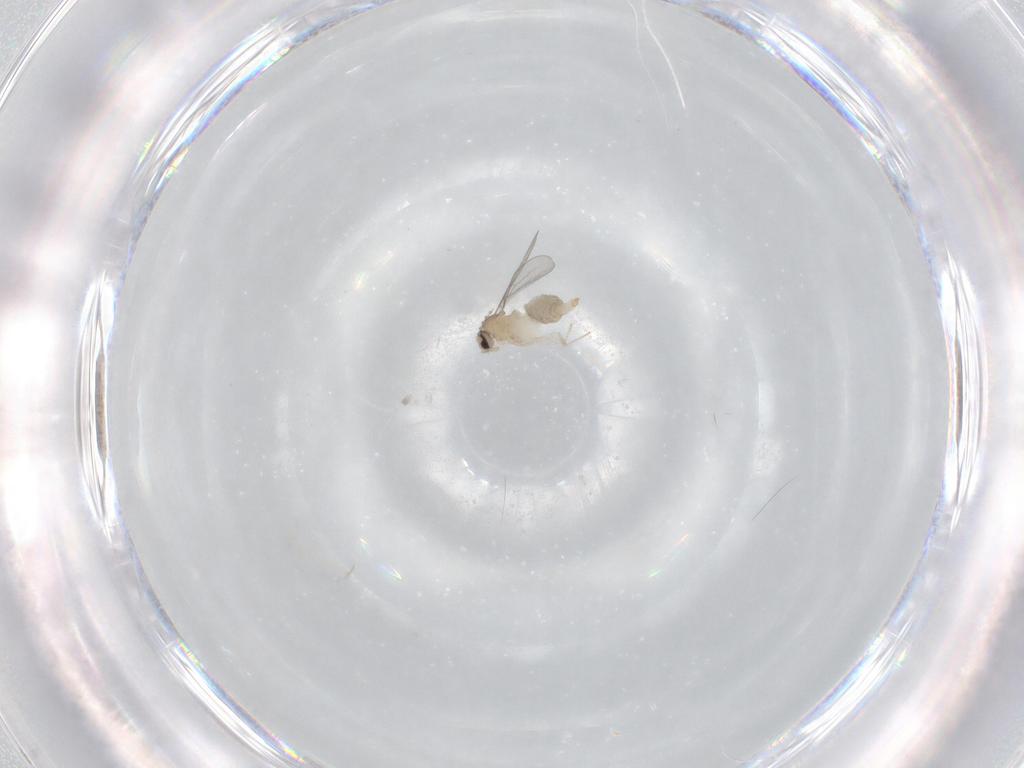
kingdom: Animalia
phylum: Arthropoda
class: Insecta
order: Diptera
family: Cecidomyiidae
